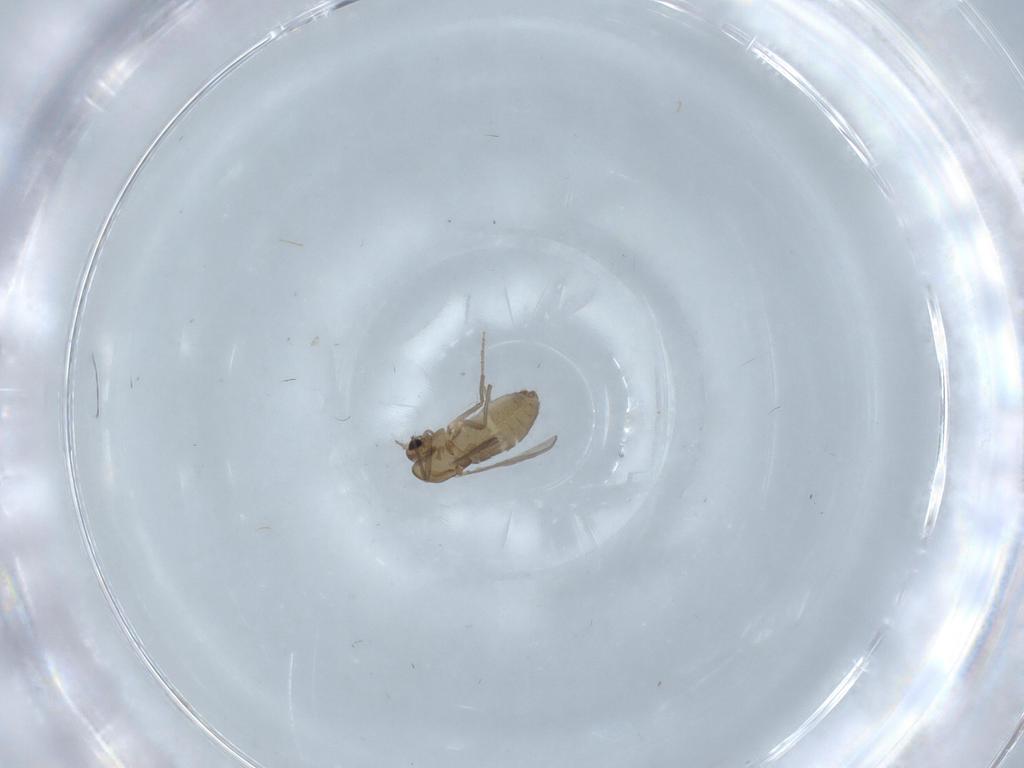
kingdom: Animalia
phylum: Arthropoda
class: Insecta
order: Diptera
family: Chironomidae
